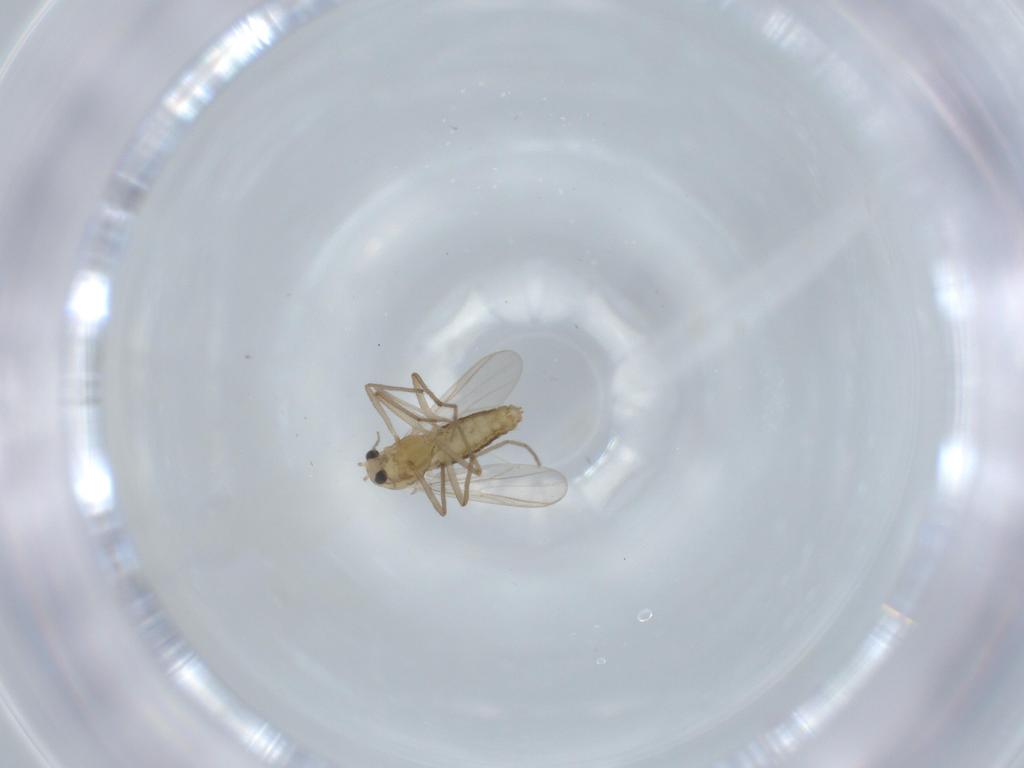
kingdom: Animalia
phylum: Arthropoda
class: Insecta
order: Diptera
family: Chironomidae
